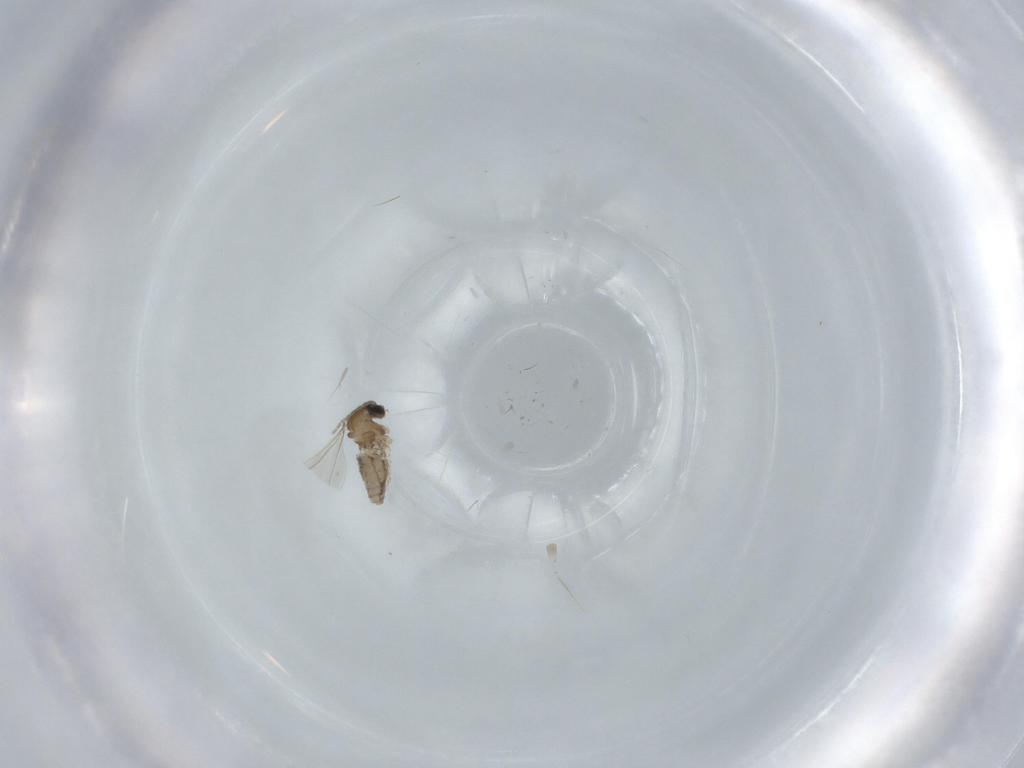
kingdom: Animalia
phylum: Arthropoda
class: Insecta
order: Diptera
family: Cecidomyiidae
